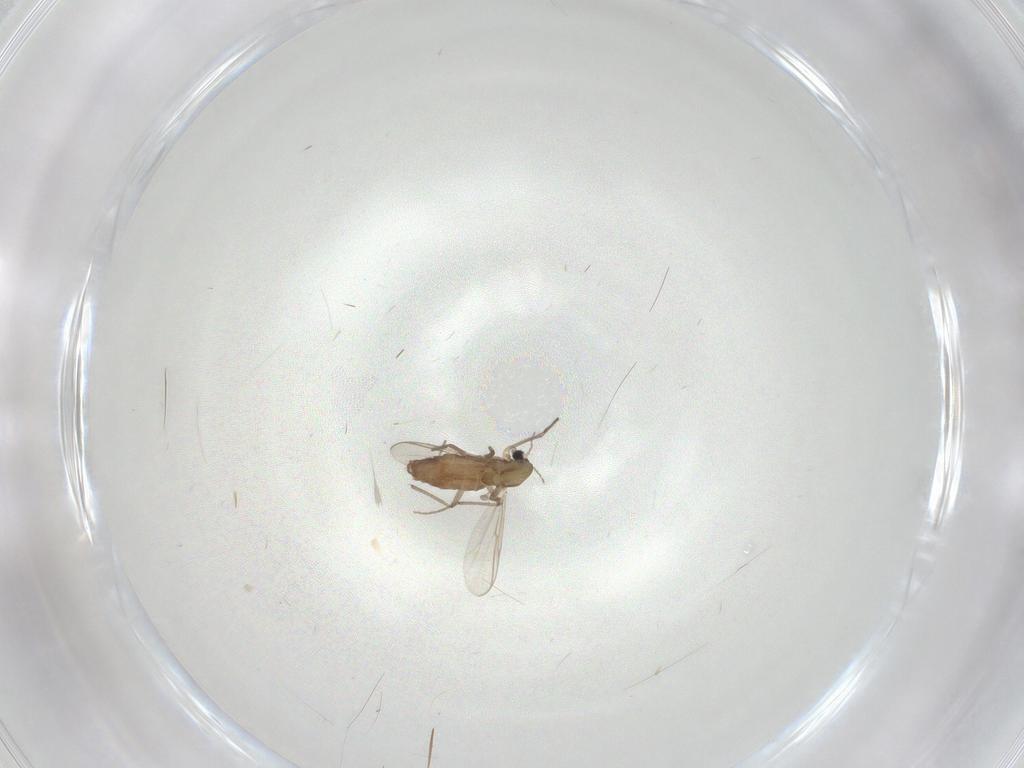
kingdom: Animalia
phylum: Arthropoda
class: Insecta
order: Diptera
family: Chironomidae
